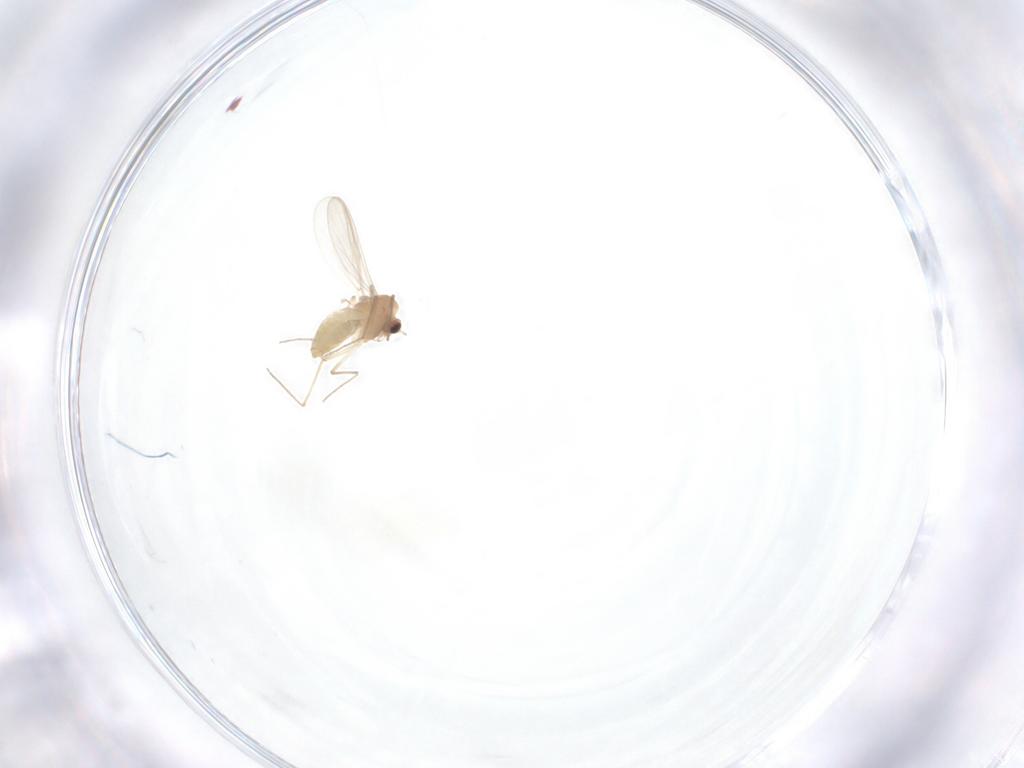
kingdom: Animalia
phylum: Arthropoda
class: Insecta
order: Diptera
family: Chironomidae
